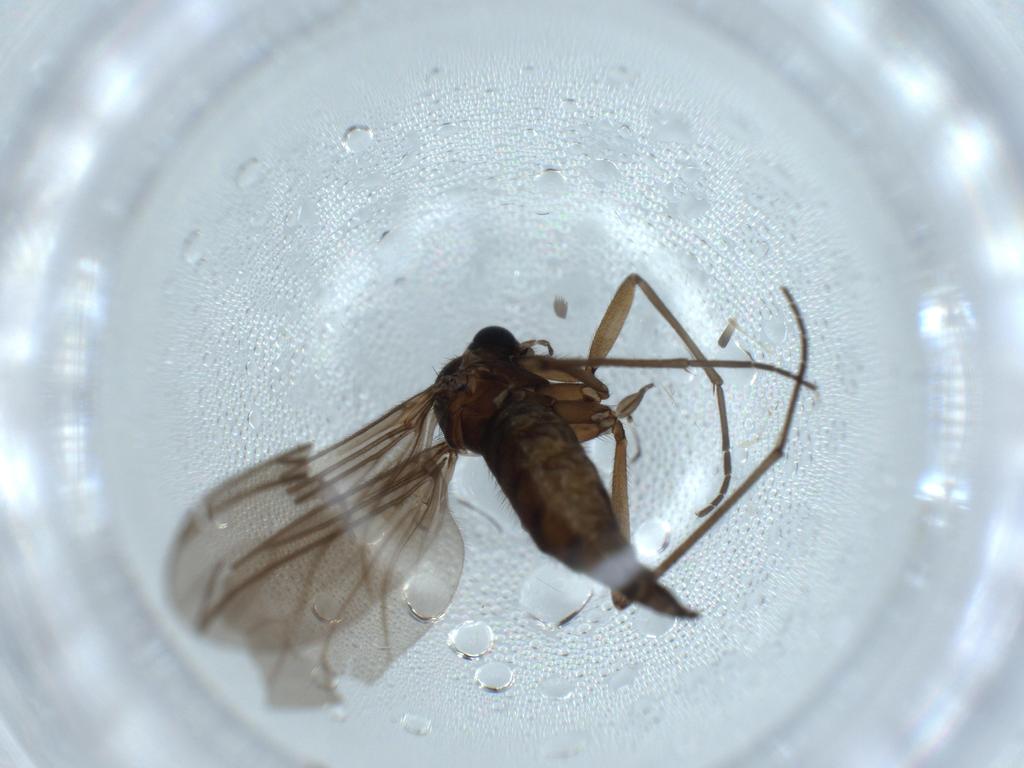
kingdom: Animalia
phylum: Arthropoda
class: Insecta
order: Diptera
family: Sciaridae
